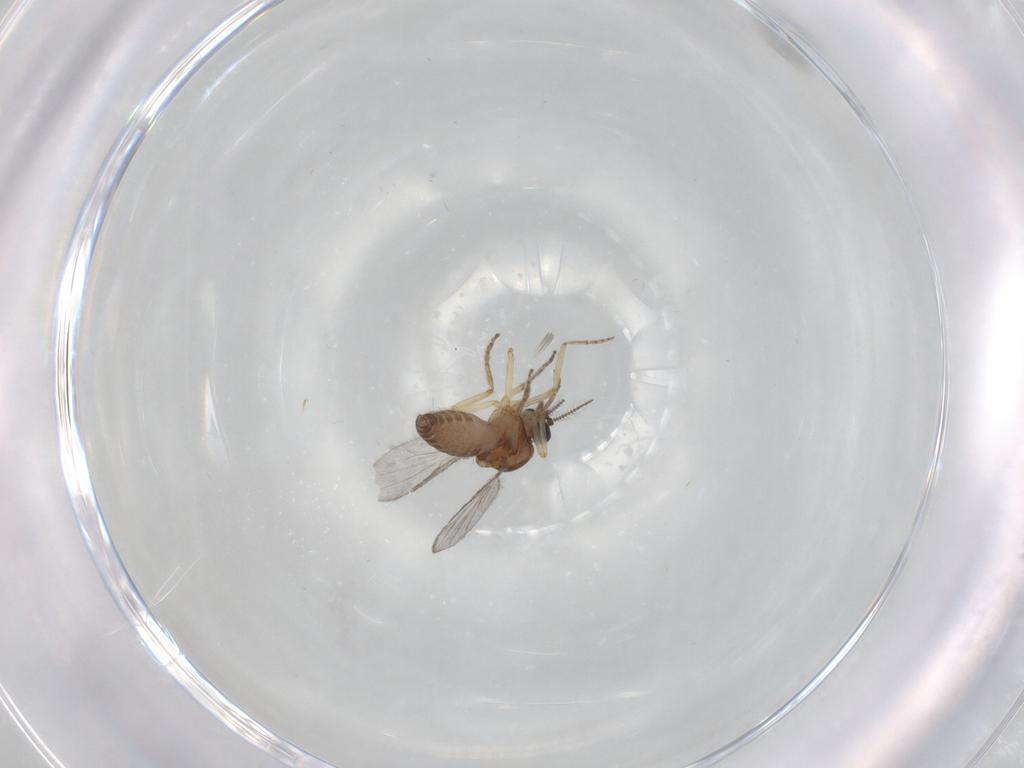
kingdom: Animalia
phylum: Arthropoda
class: Insecta
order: Diptera
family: Ceratopogonidae
